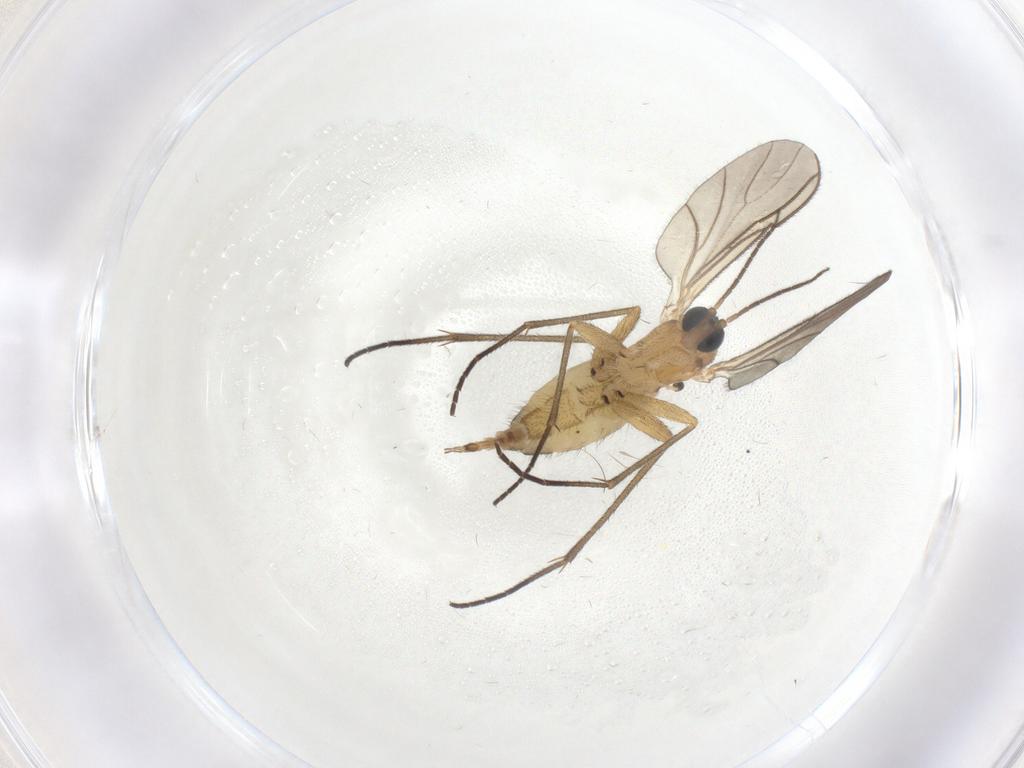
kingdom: Animalia
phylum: Arthropoda
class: Insecta
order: Diptera
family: Sciaridae
